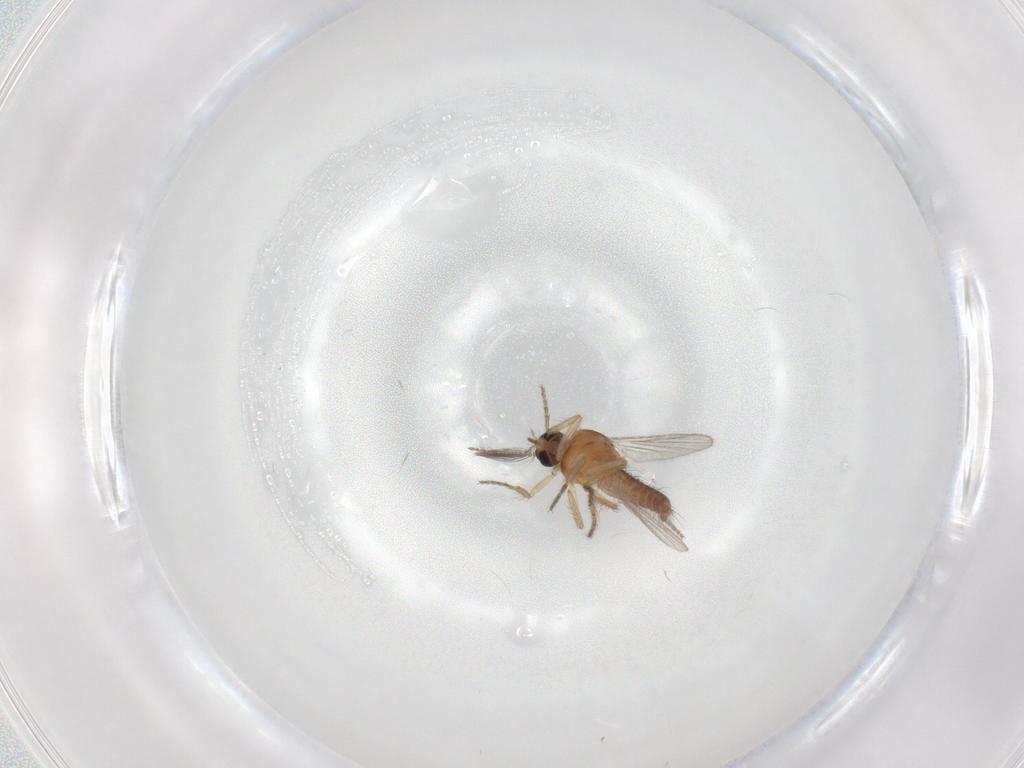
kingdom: Animalia
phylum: Arthropoda
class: Insecta
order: Diptera
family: Ceratopogonidae
